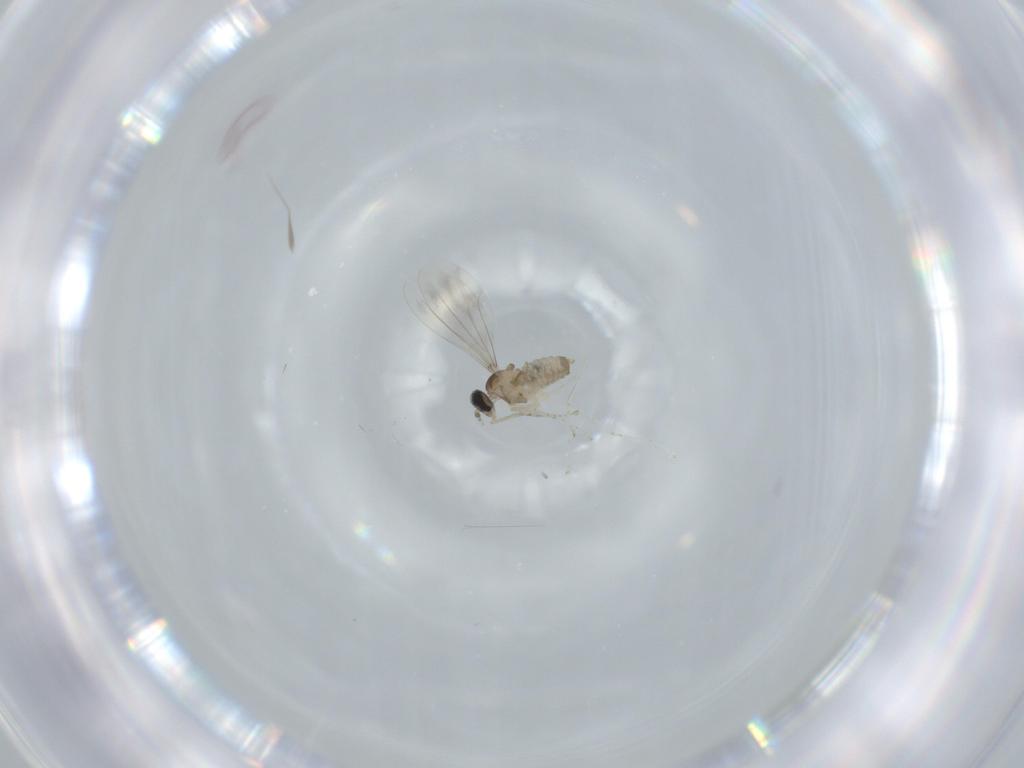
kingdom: Animalia
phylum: Arthropoda
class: Insecta
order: Diptera
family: Cecidomyiidae
